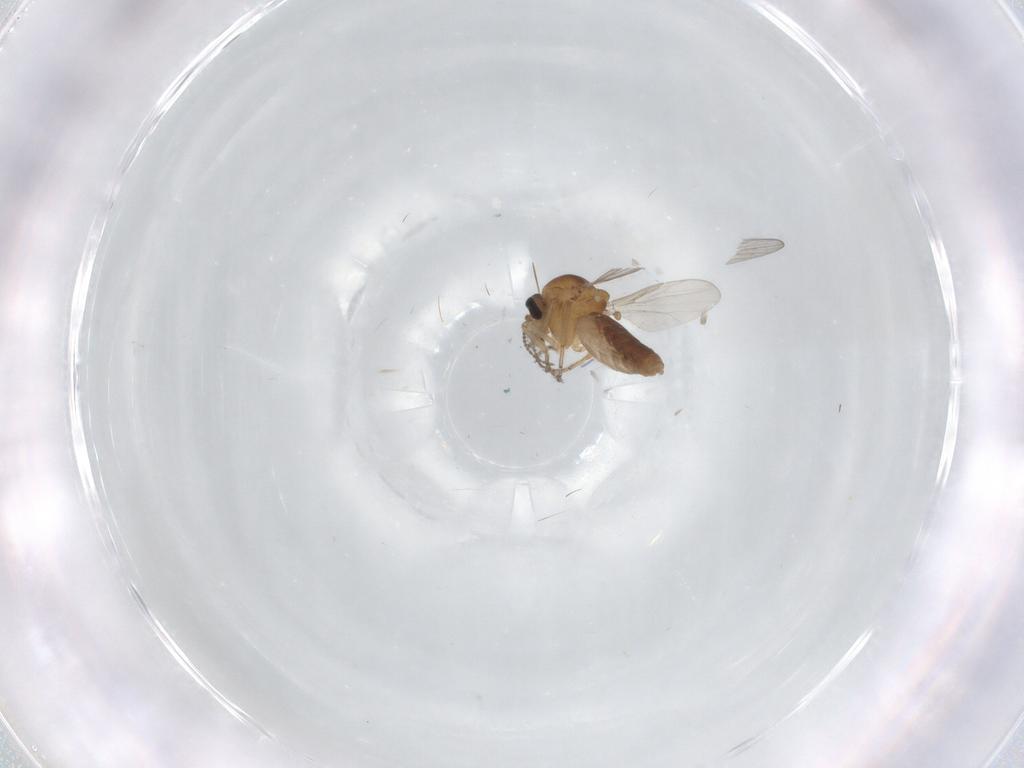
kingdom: Animalia
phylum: Arthropoda
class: Insecta
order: Diptera
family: Ceratopogonidae
